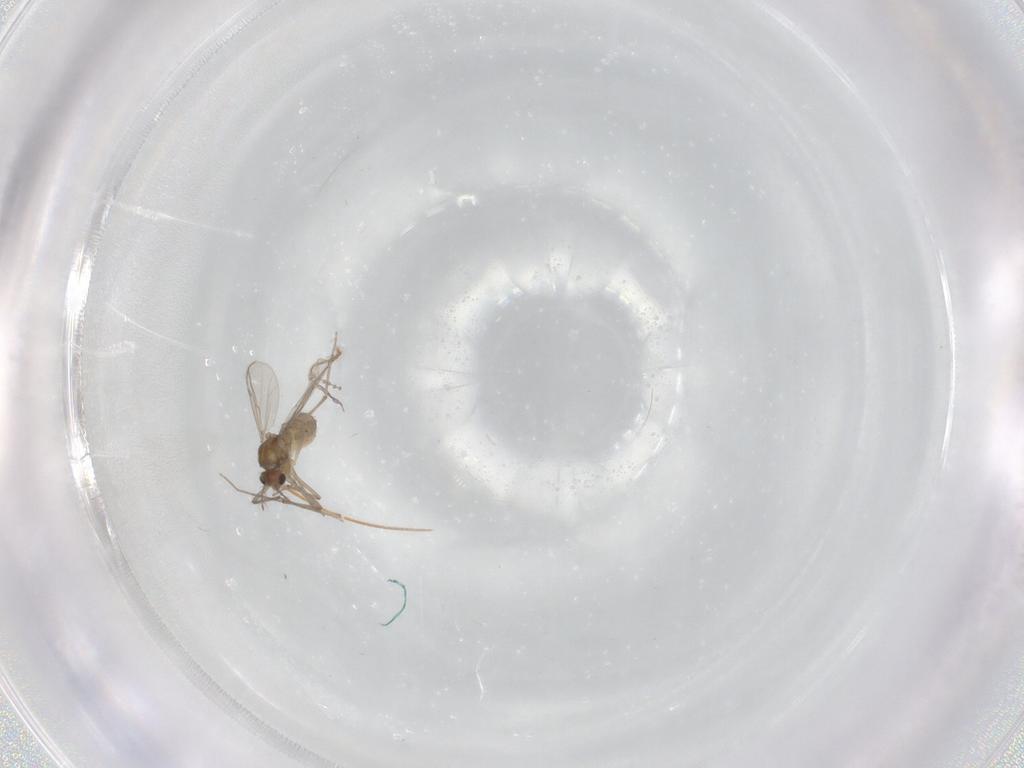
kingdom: Animalia
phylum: Arthropoda
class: Insecta
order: Diptera
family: Chironomidae
